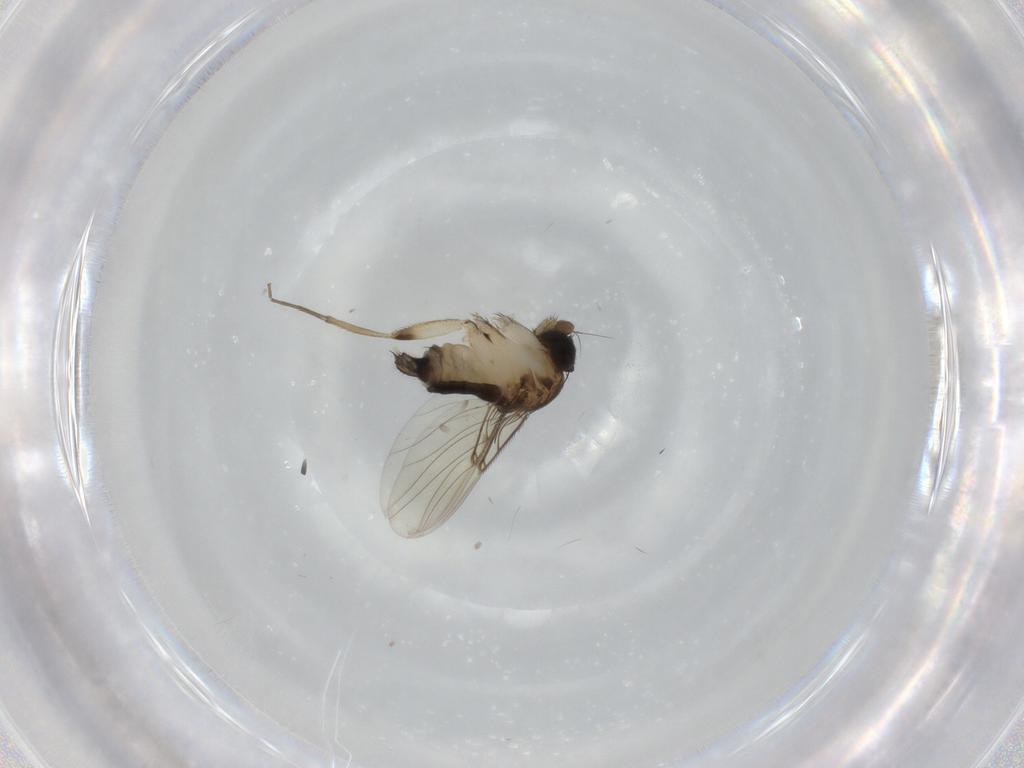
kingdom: Animalia
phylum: Arthropoda
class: Insecta
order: Diptera
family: Phoridae
